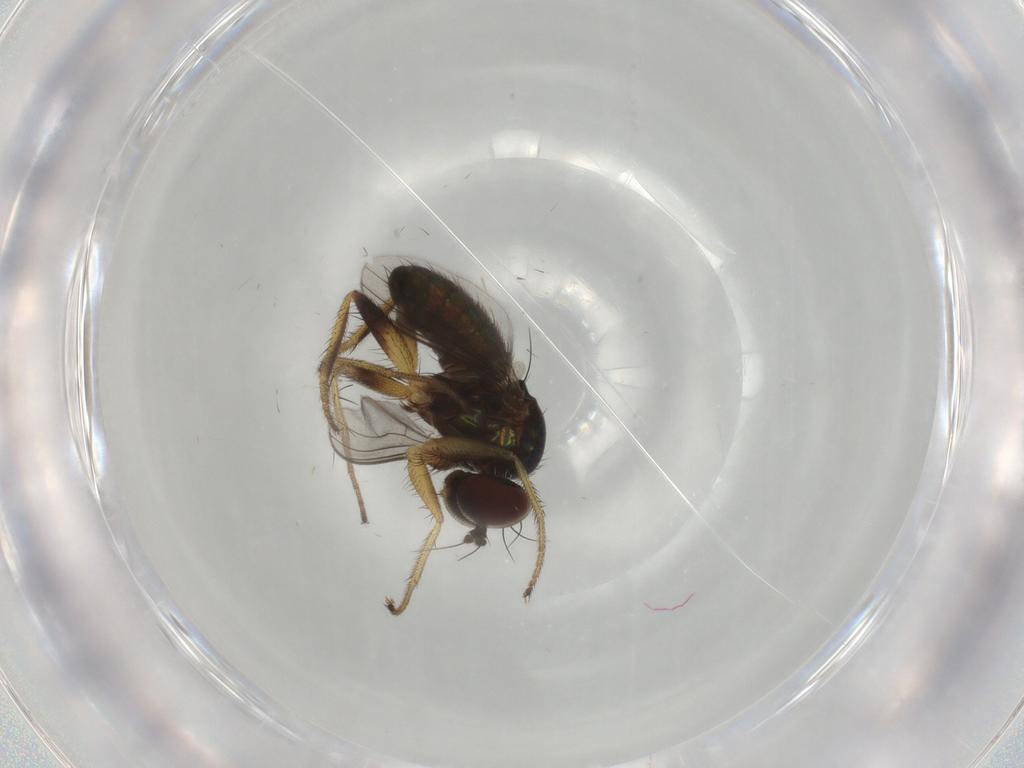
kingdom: Animalia
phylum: Arthropoda
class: Insecta
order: Diptera
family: Dolichopodidae
